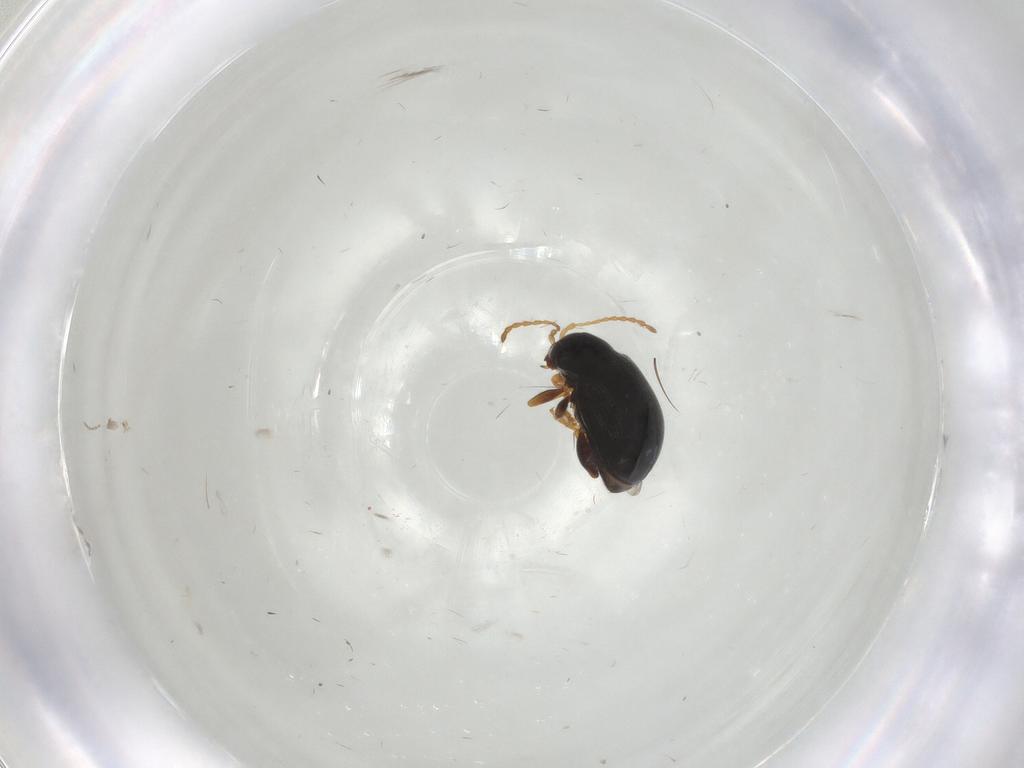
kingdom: Animalia
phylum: Arthropoda
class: Insecta
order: Coleoptera
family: Chrysomelidae
